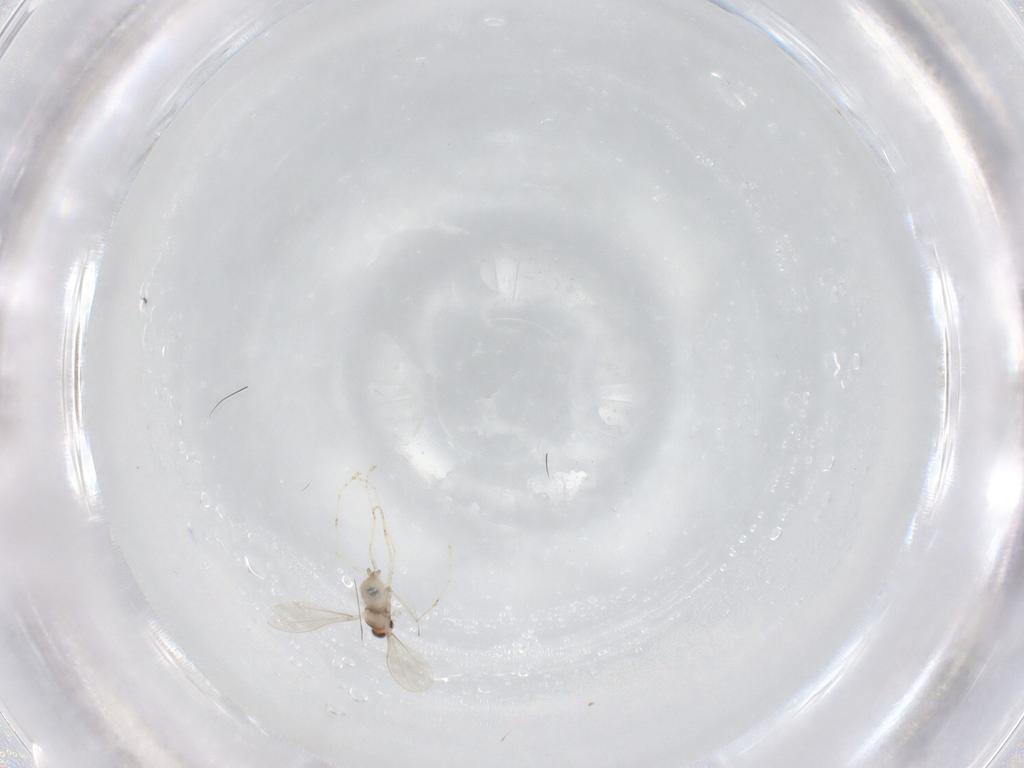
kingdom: Animalia
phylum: Arthropoda
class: Insecta
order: Diptera
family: Cecidomyiidae
